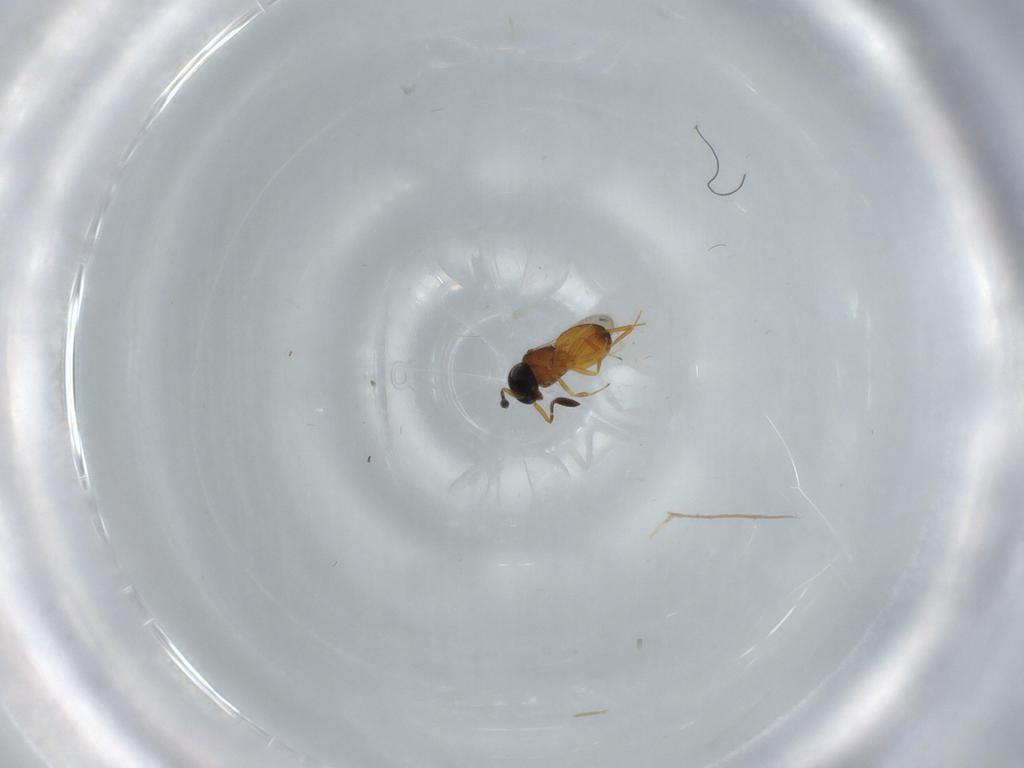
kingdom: Animalia
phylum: Arthropoda
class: Insecta
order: Hymenoptera
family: Scelionidae
